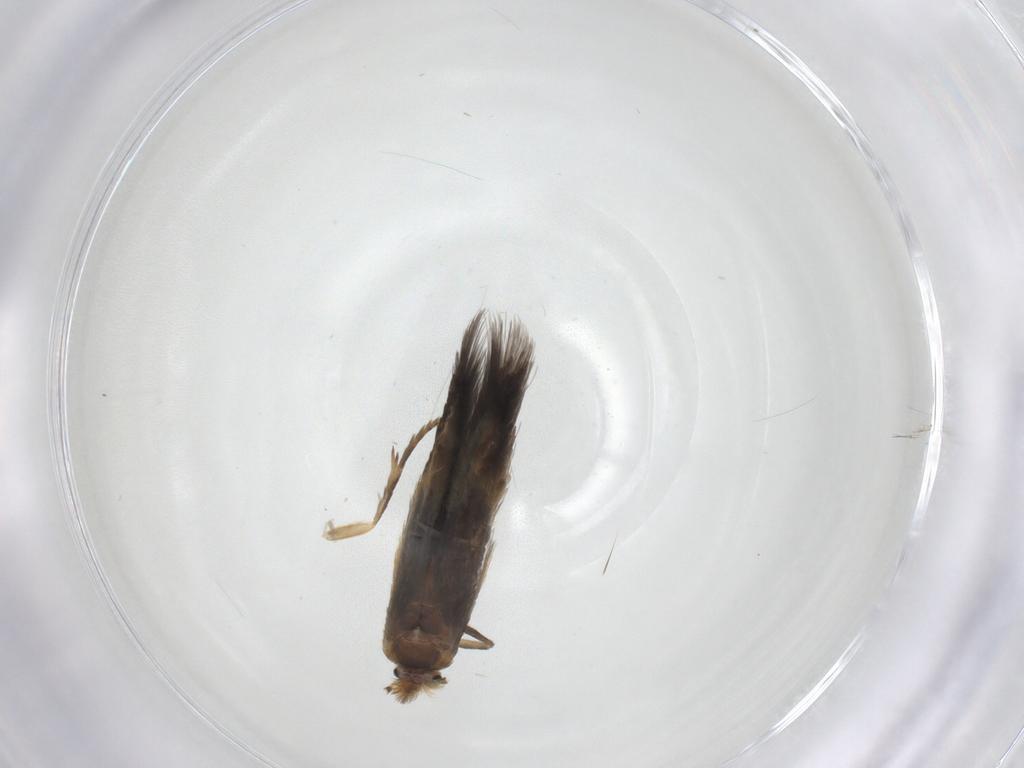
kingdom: Animalia
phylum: Arthropoda
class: Insecta
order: Lepidoptera
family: Nepticulidae
